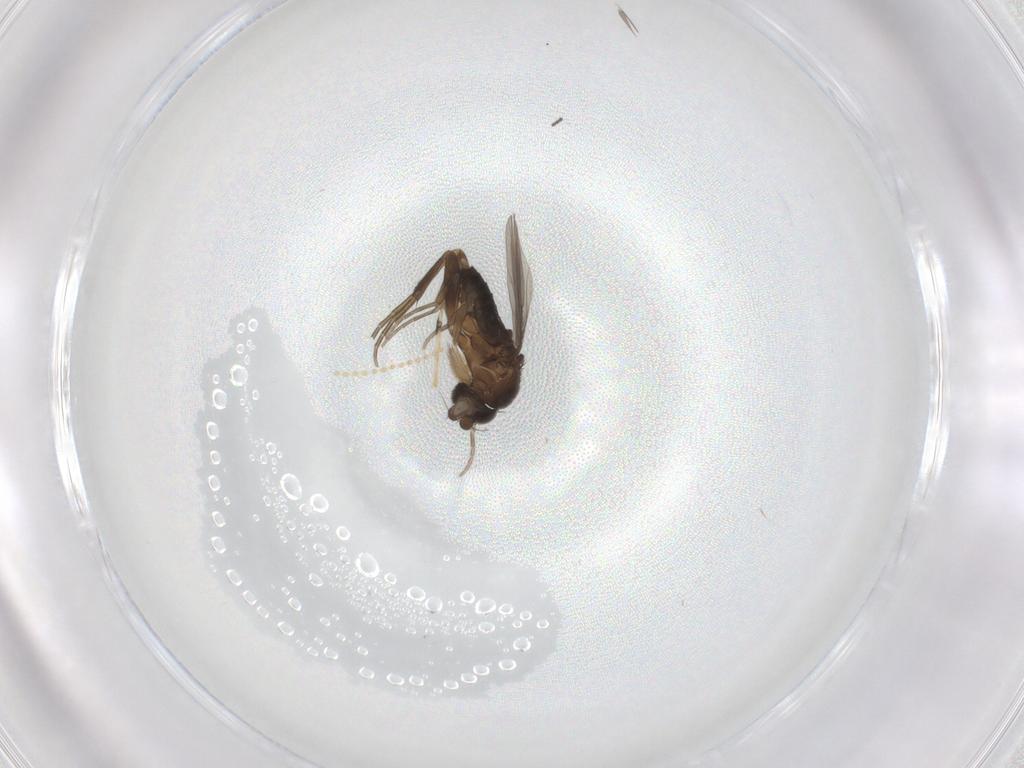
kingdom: Animalia
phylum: Arthropoda
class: Insecta
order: Diptera
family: Phoridae
